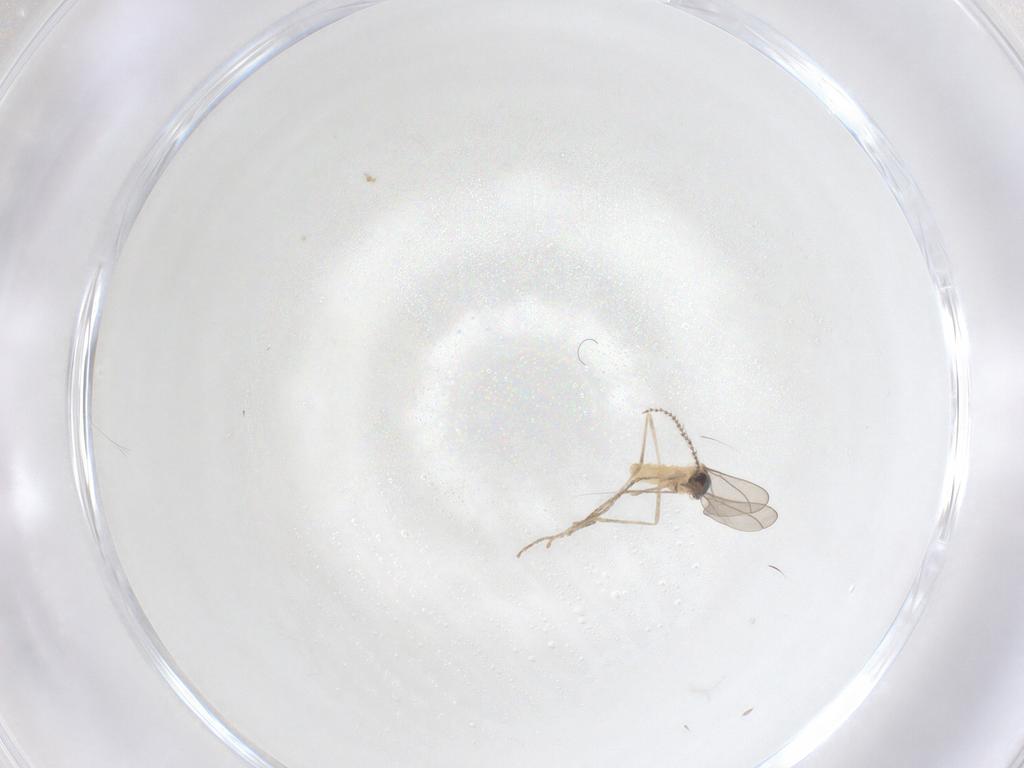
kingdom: Animalia
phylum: Arthropoda
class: Insecta
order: Diptera
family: Cecidomyiidae
